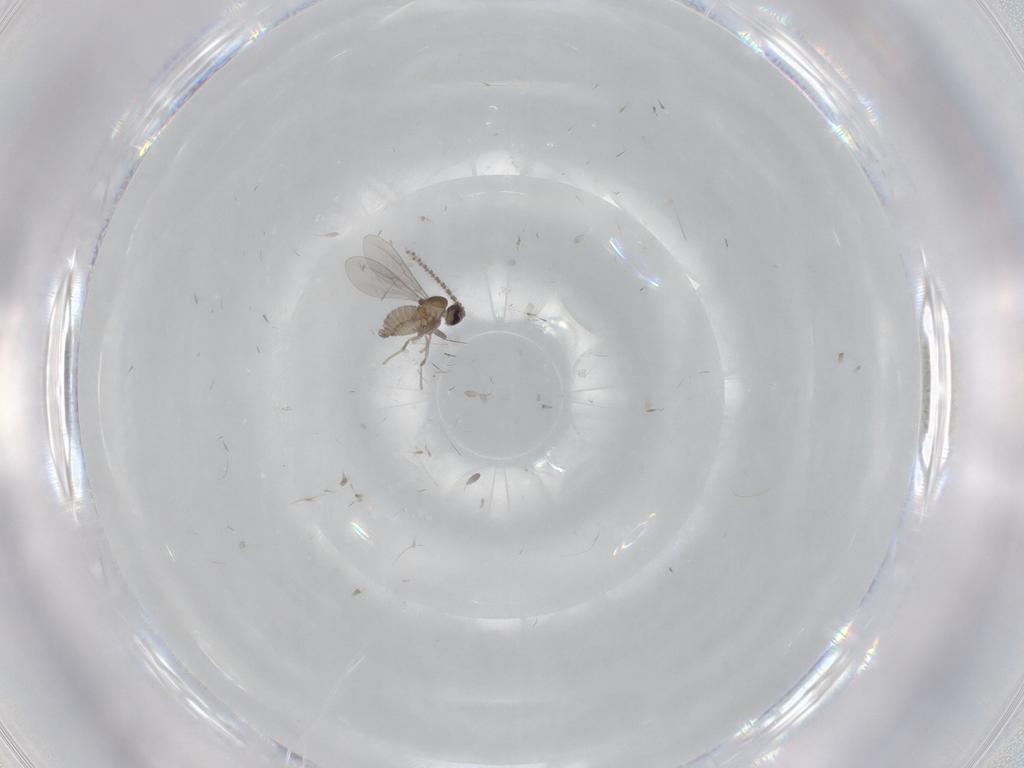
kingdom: Animalia
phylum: Arthropoda
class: Insecta
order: Diptera
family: Cecidomyiidae
